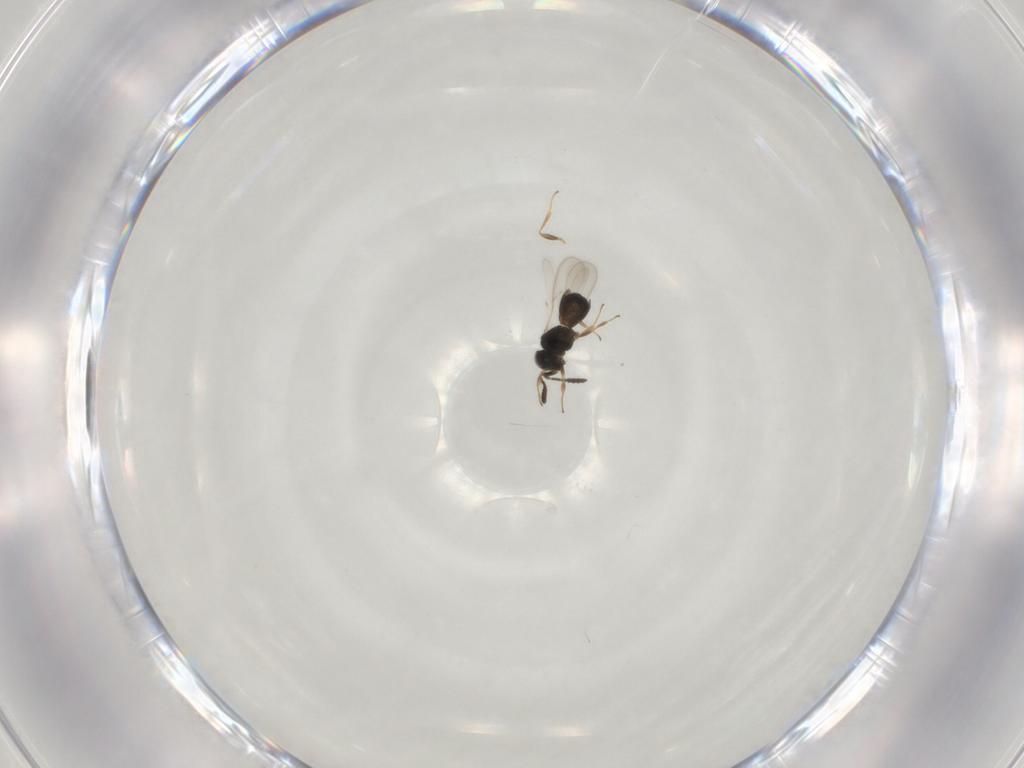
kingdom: Animalia
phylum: Arthropoda
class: Insecta
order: Hymenoptera
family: Scelionidae
